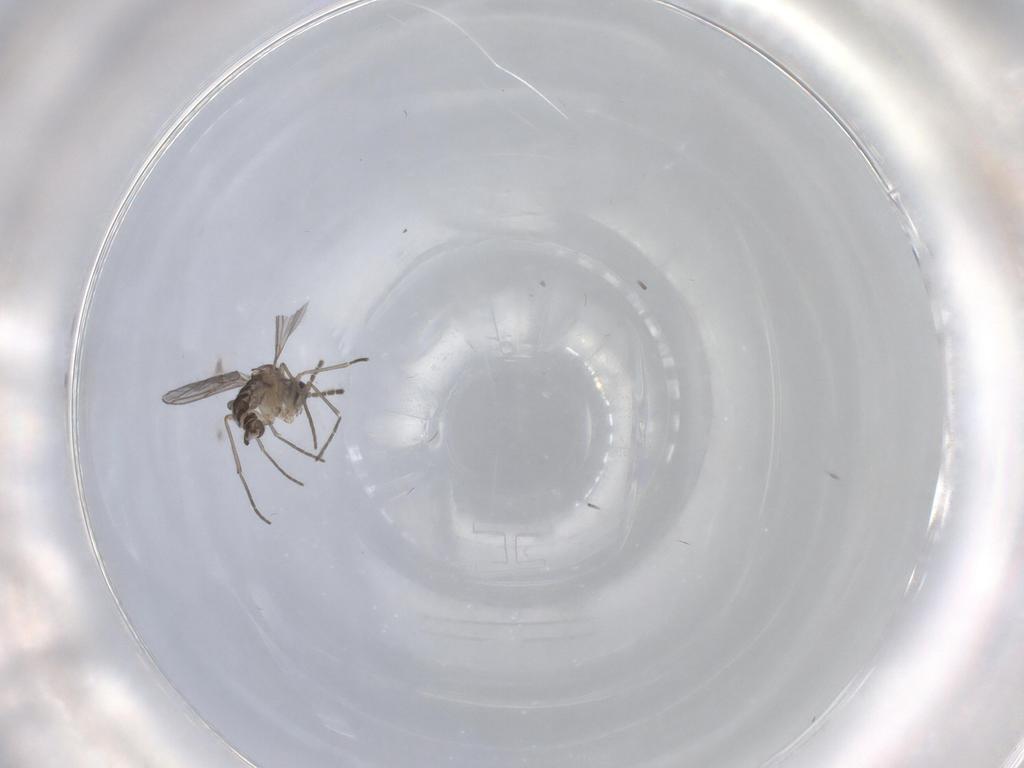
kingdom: Animalia
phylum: Arthropoda
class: Insecta
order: Diptera
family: Sciaridae
